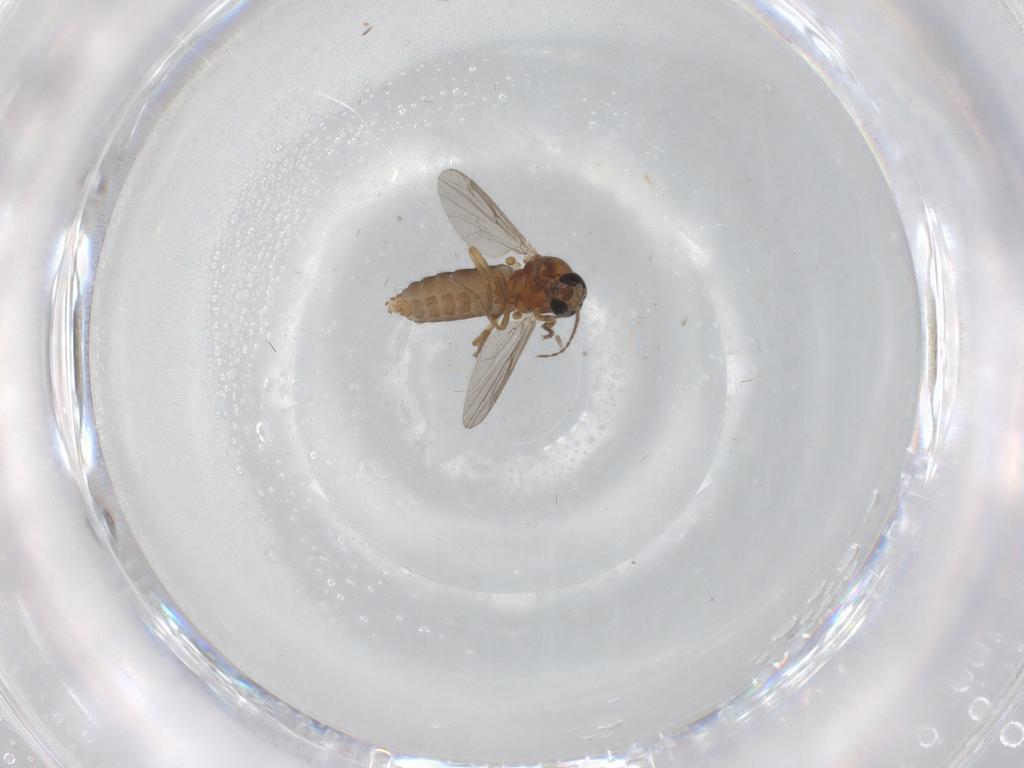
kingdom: Animalia
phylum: Arthropoda
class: Insecta
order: Diptera
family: Ceratopogonidae
